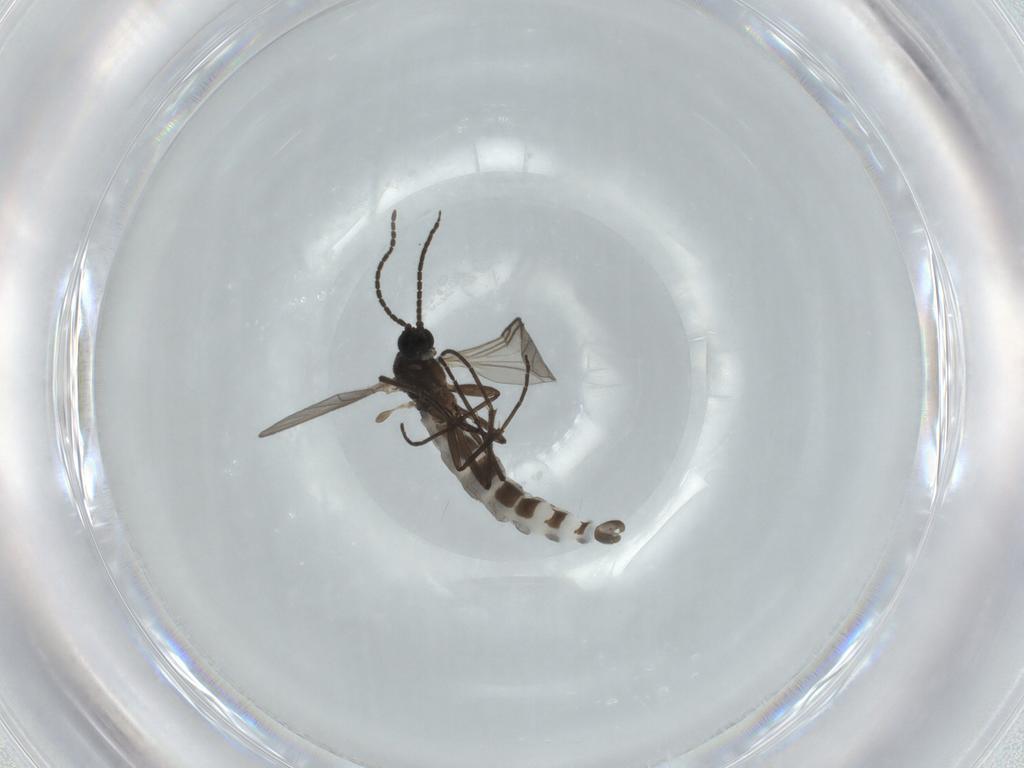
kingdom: Animalia
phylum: Arthropoda
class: Insecta
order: Diptera
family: Sciaridae
